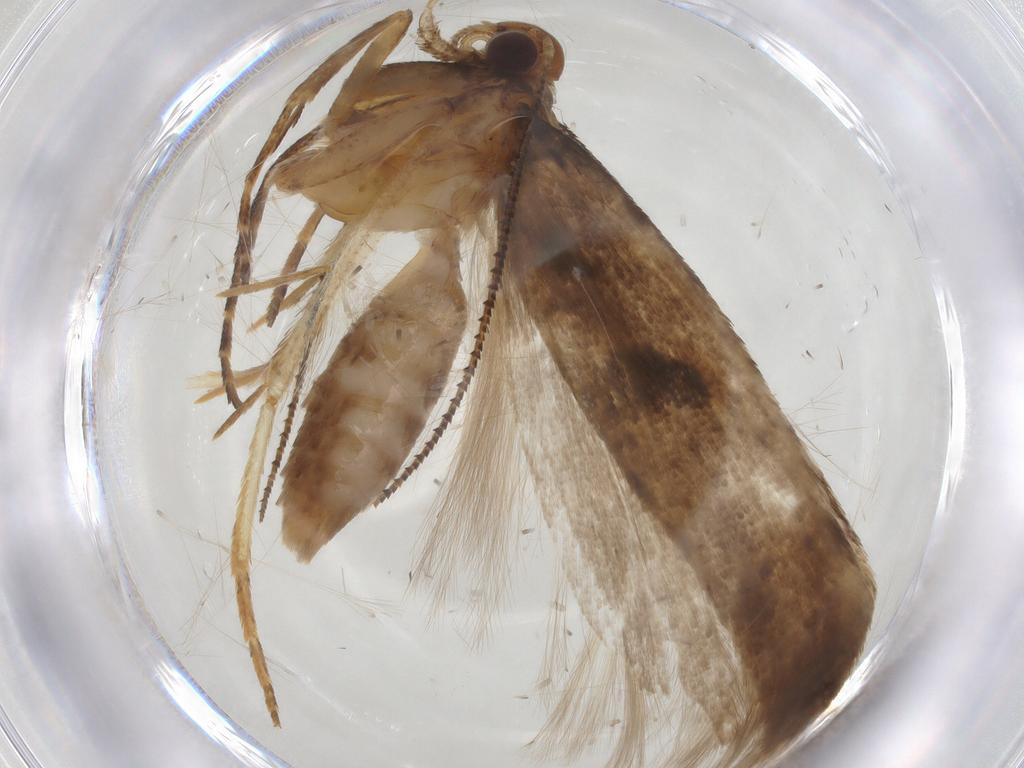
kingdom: Animalia
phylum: Arthropoda
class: Insecta
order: Lepidoptera
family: Gelechiidae
